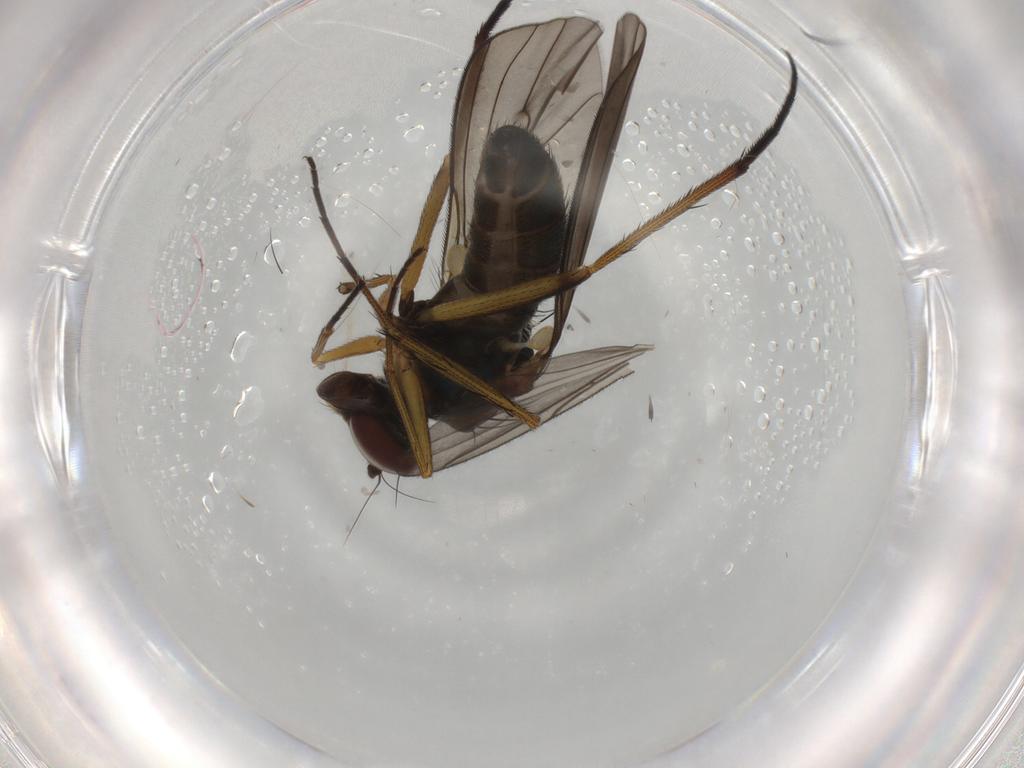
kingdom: Animalia
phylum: Arthropoda
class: Insecta
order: Diptera
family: Dolichopodidae
